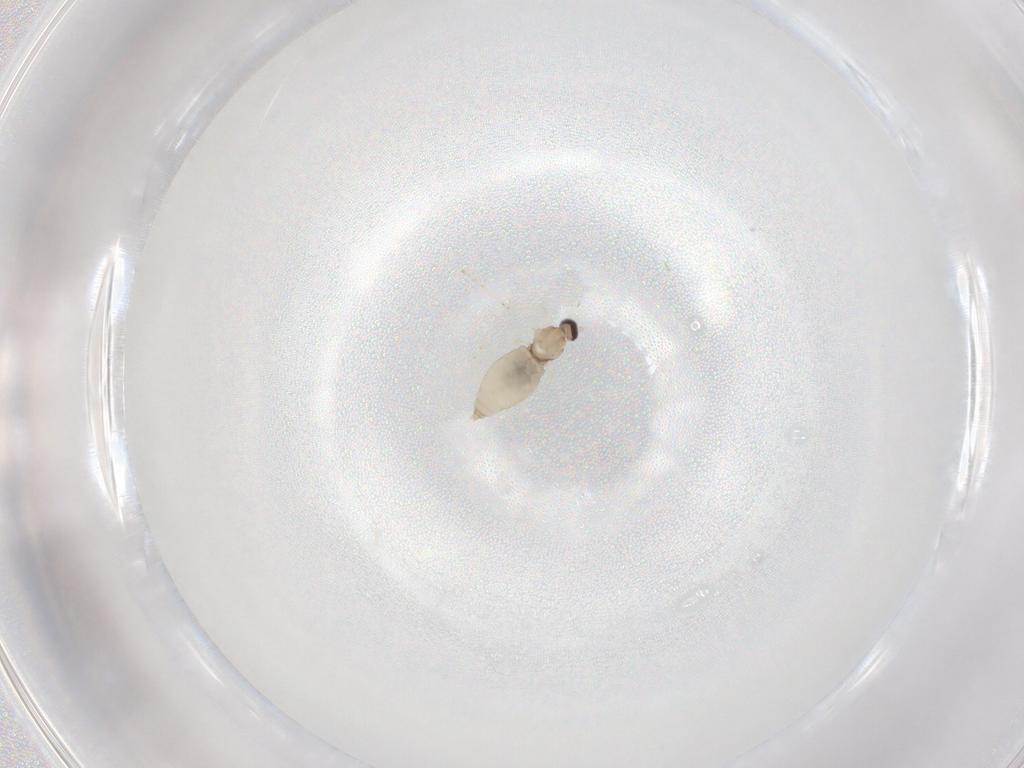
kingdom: Animalia
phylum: Arthropoda
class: Insecta
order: Diptera
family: Cecidomyiidae
